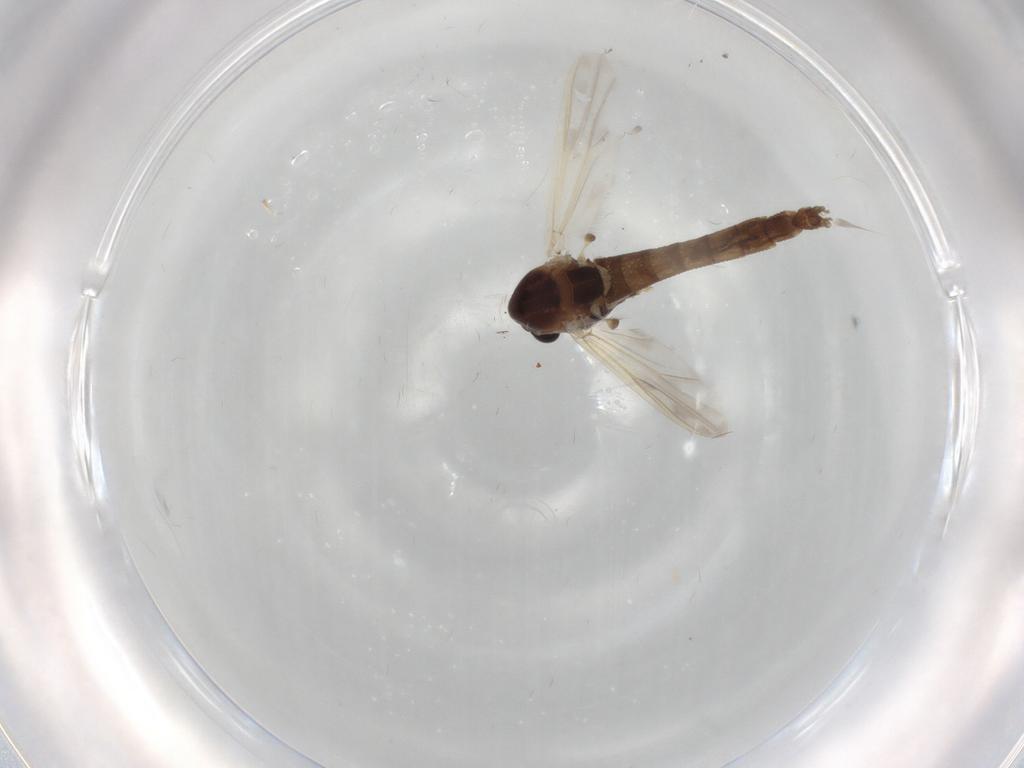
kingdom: Animalia
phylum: Arthropoda
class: Insecta
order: Diptera
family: Chironomidae
